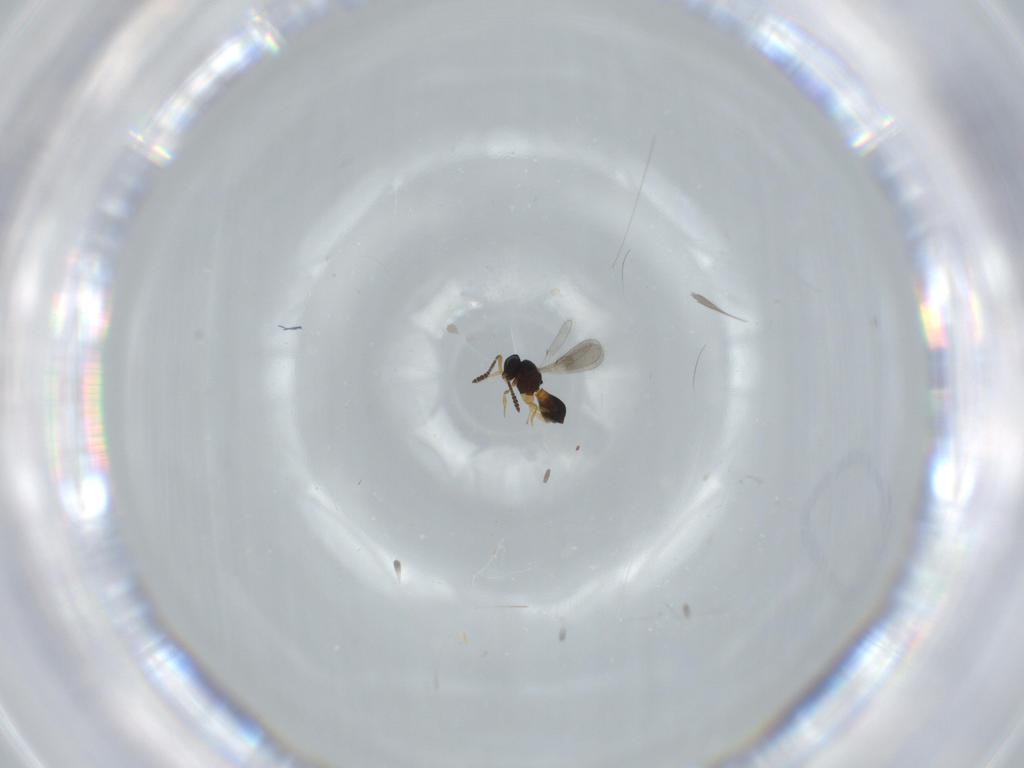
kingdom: Animalia
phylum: Arthropoda
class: Insecta
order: Hymenoptera
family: Scelionidae
